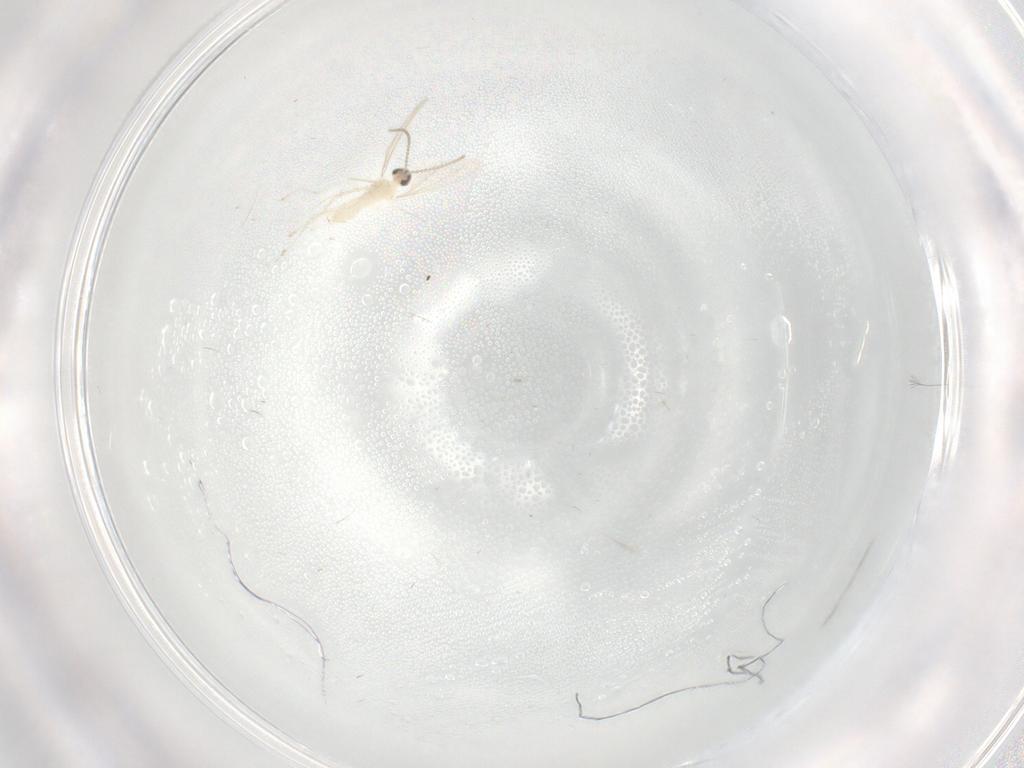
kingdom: Animalia
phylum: Arthropoda
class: Insecta
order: Diptera
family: Cecidomyiidae
